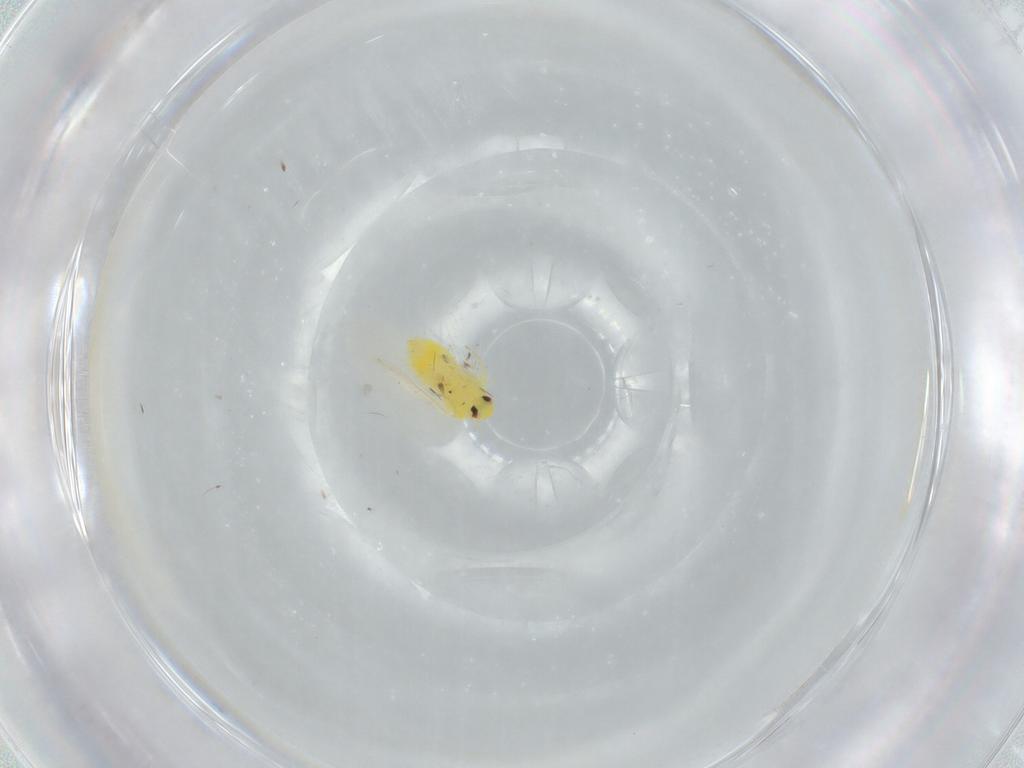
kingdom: Animalia
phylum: Arthropoda
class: Insecta
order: Hemiptera
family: Aleyrodidae
